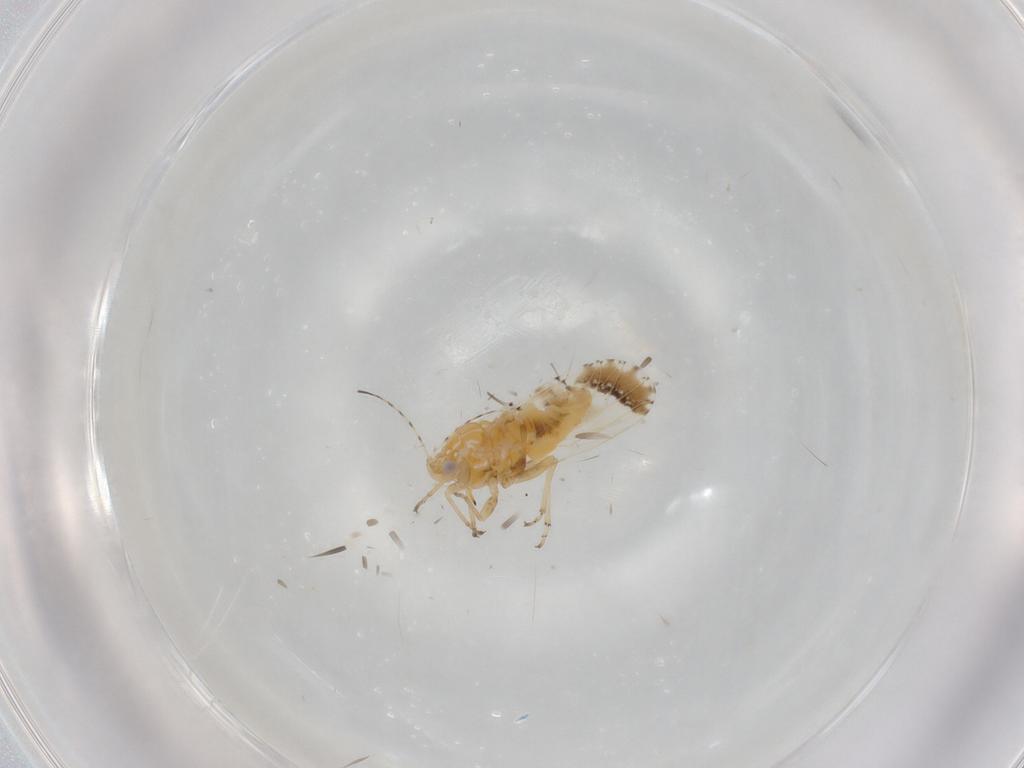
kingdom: Animalia
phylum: Arthropoda
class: Insecta
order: Hemiptera
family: Psyllidae
